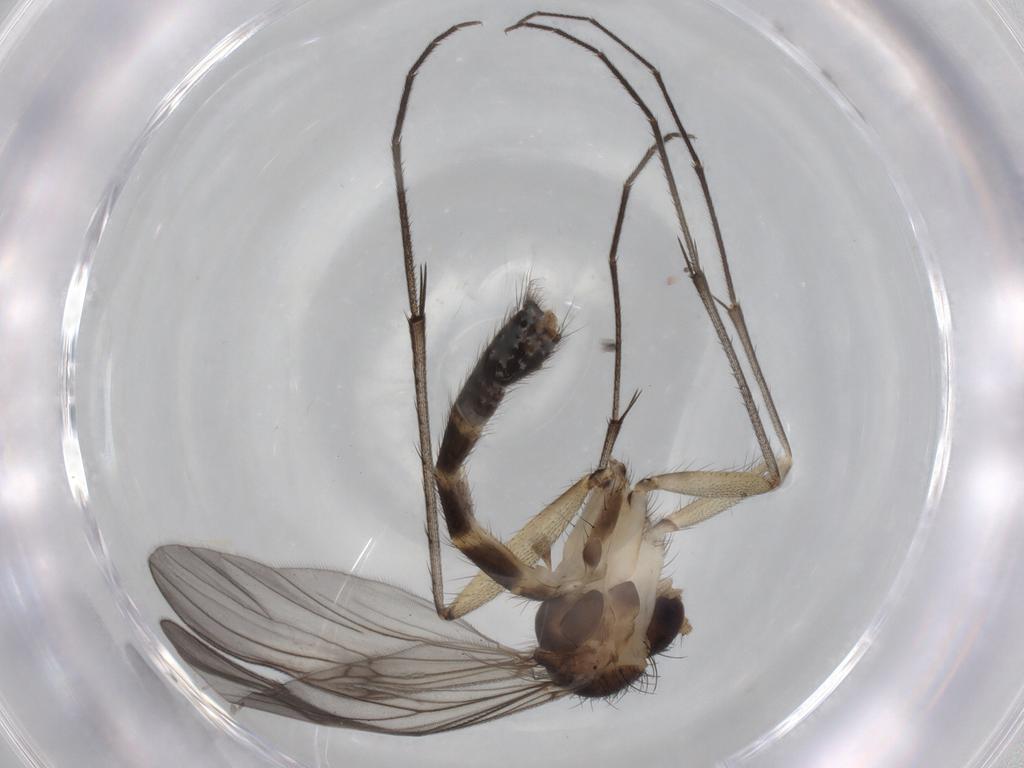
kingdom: Animalia
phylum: Arthropoda
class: Insecta
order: Diptera
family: Mycetophilidae
